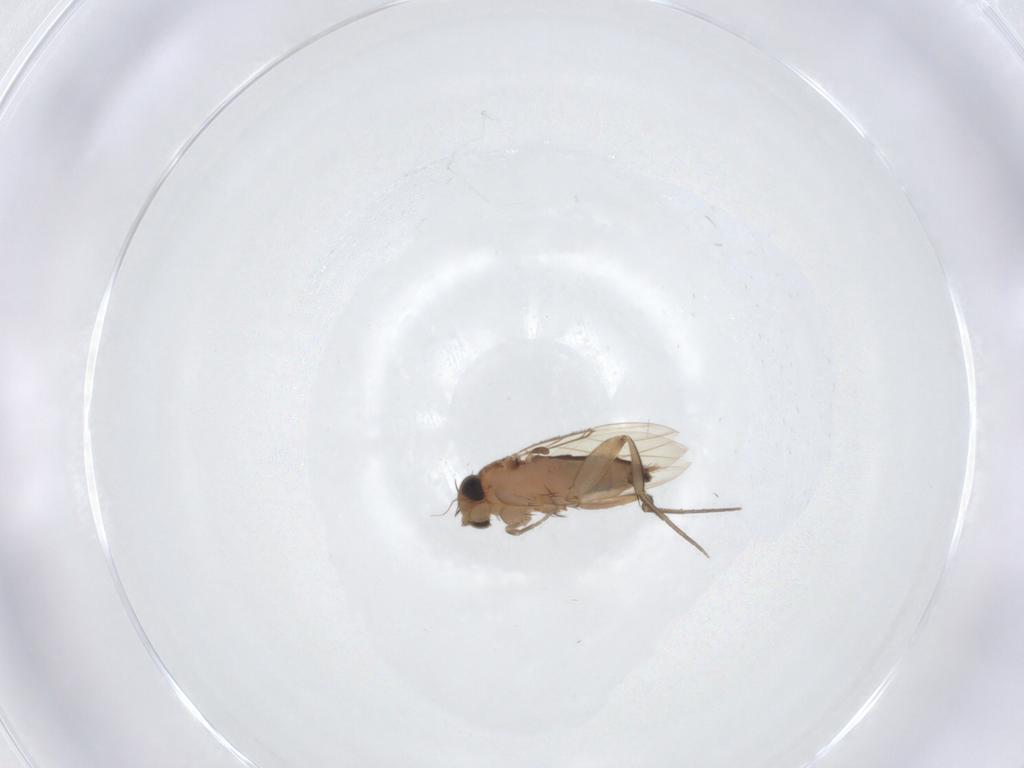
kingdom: Animalia
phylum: Arthropoda
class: Insecta
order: Diptera
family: Phoridae
